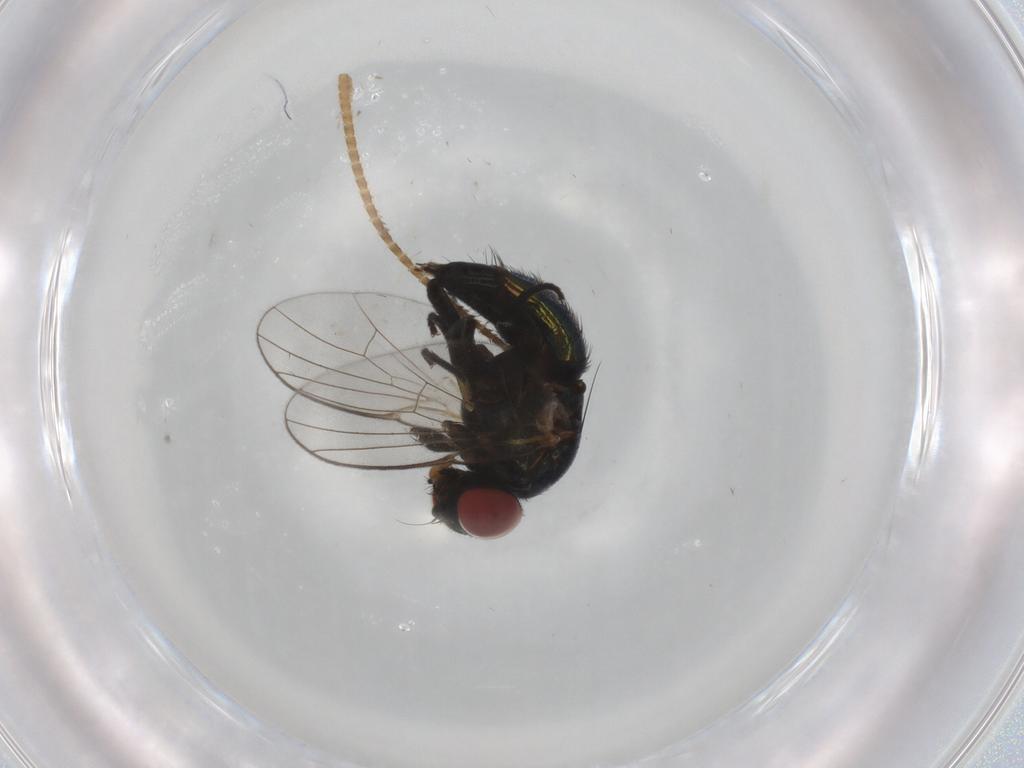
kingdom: Animalia
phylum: Arthropoda
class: Insecta
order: Diptera
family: Agromyzidae
